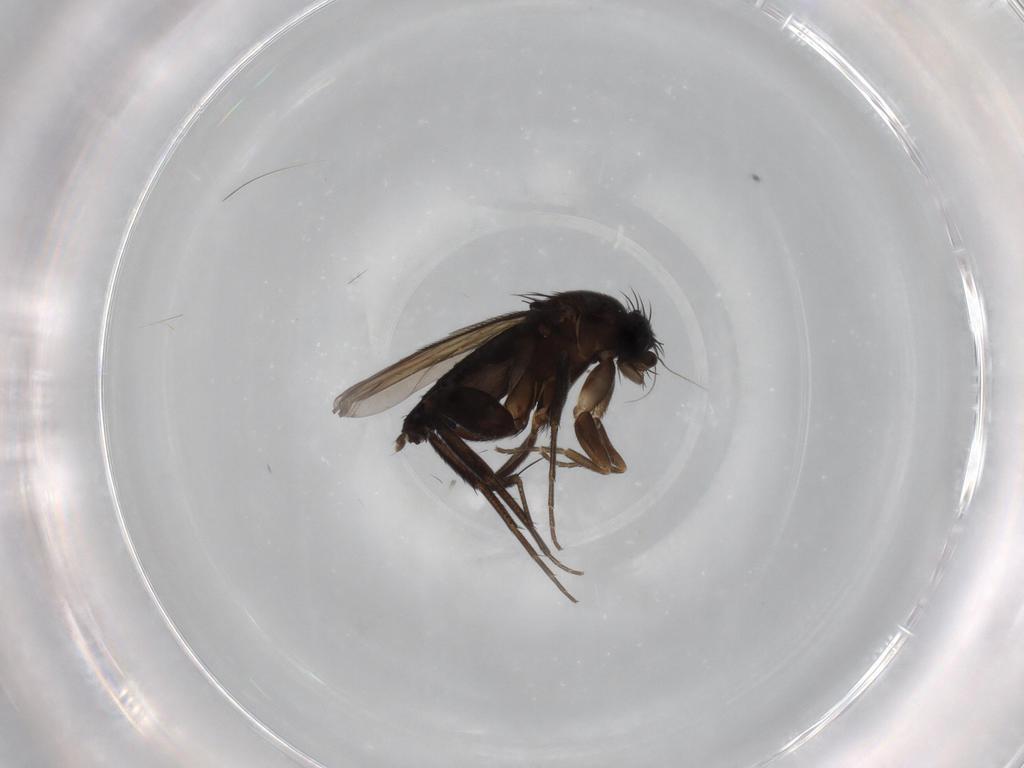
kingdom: Animalia
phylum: Arthropoda
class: Insecta
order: Diptera
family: Phoridae
